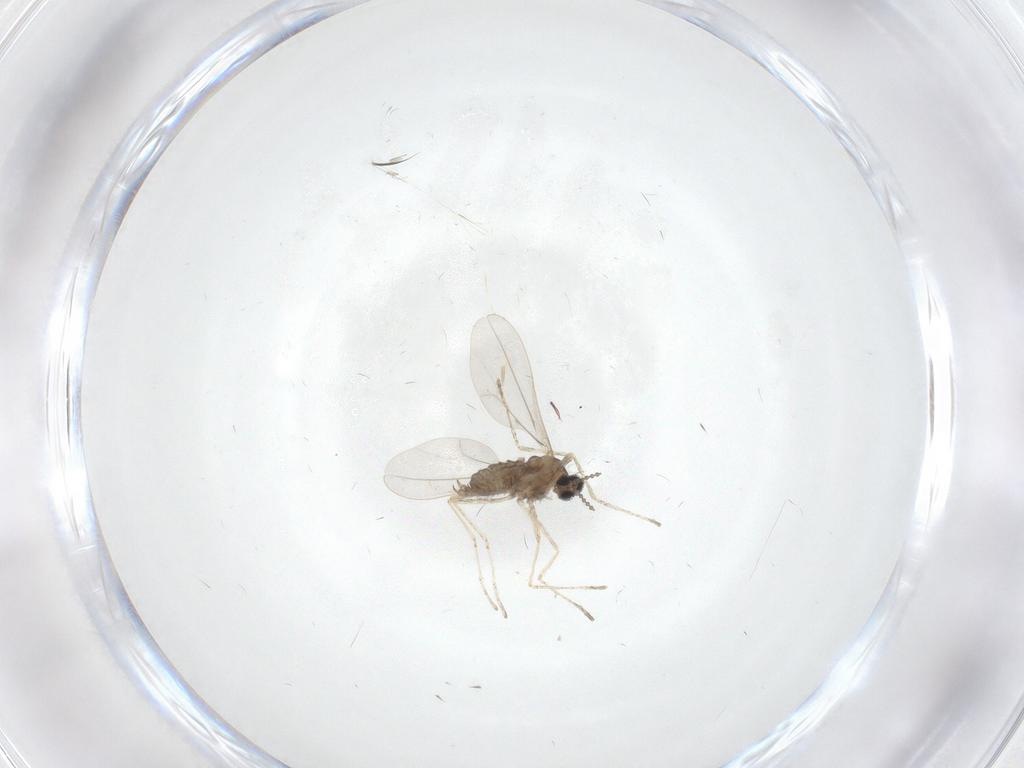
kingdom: Animalia
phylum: Arthropoda
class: Insecta
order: Diptera
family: Cecidomyiidae
